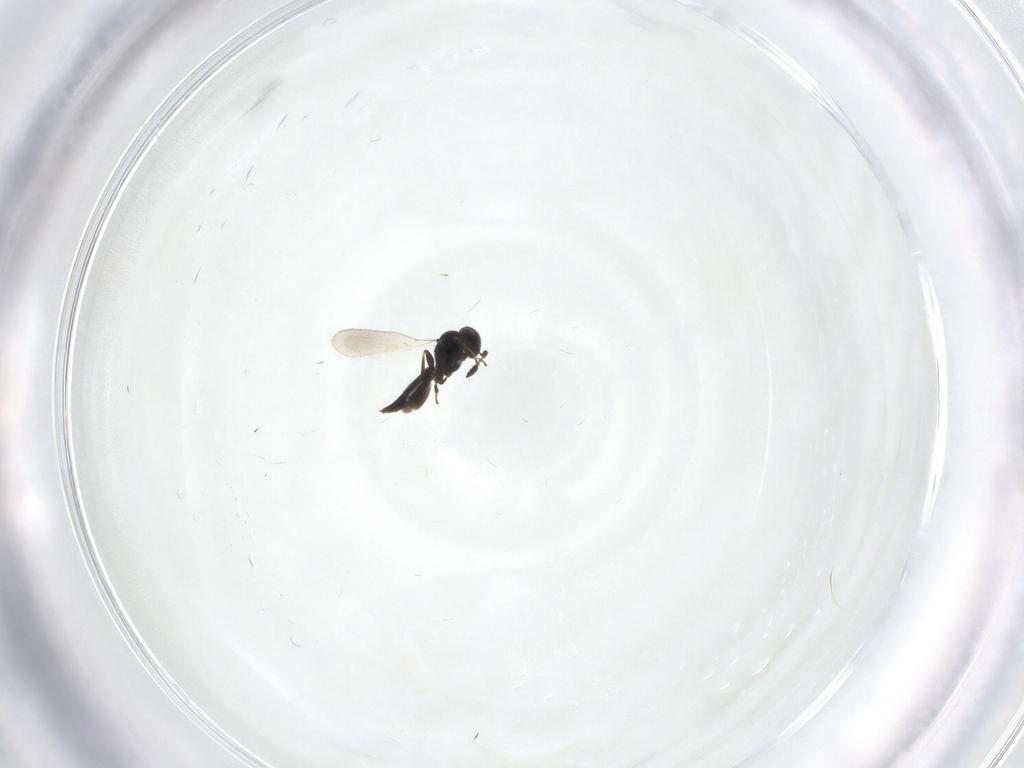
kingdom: Animalia
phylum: Arthropoda
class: Insecta
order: Hymenoptera
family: Platygastridae
